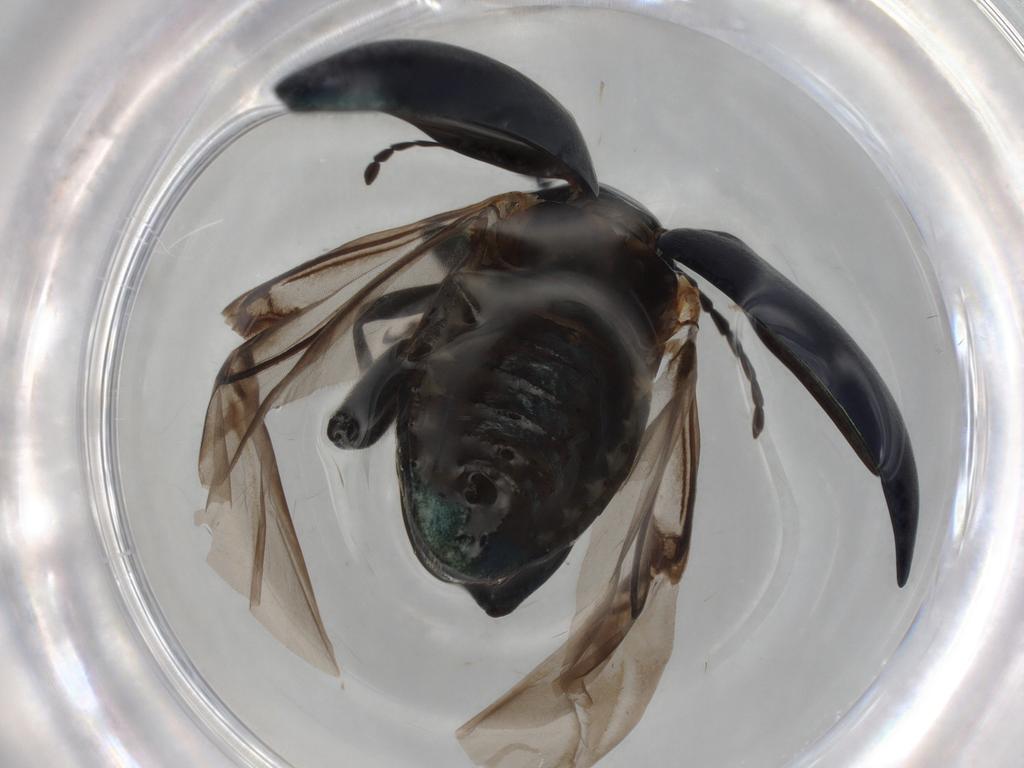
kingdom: Animalia
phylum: Arthropoda
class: Insecta
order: Coleoptera
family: Chrysomelidae
